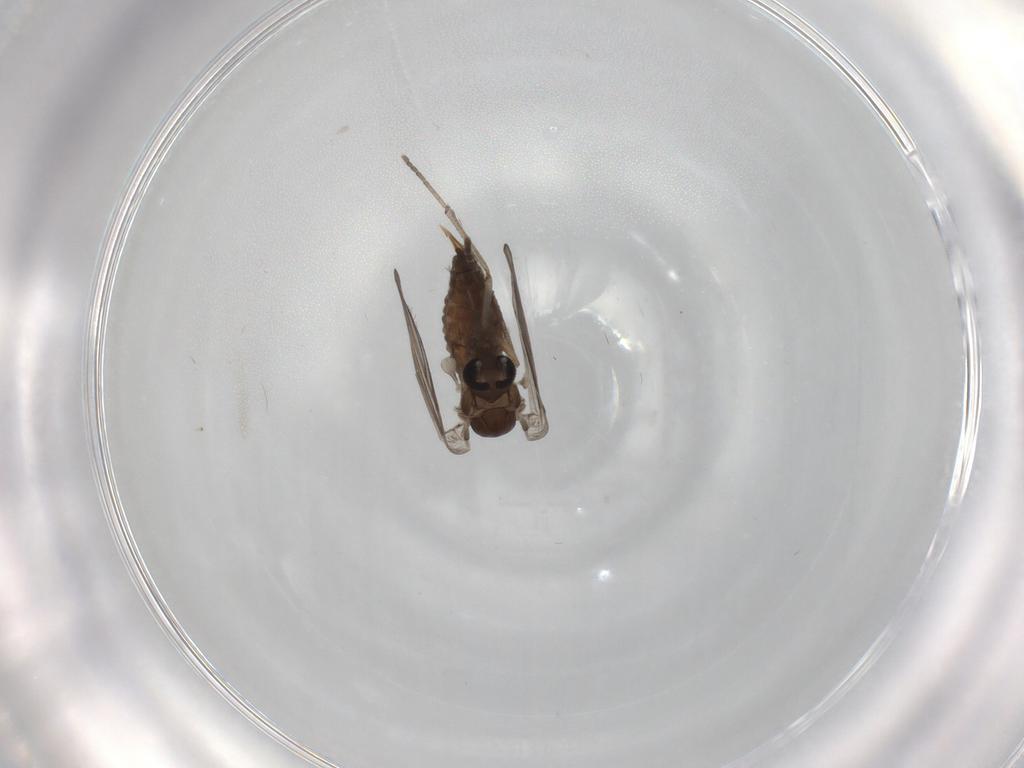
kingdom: Animalia
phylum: Arthropoda
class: Insecta
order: Diptera
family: Psychodidae
